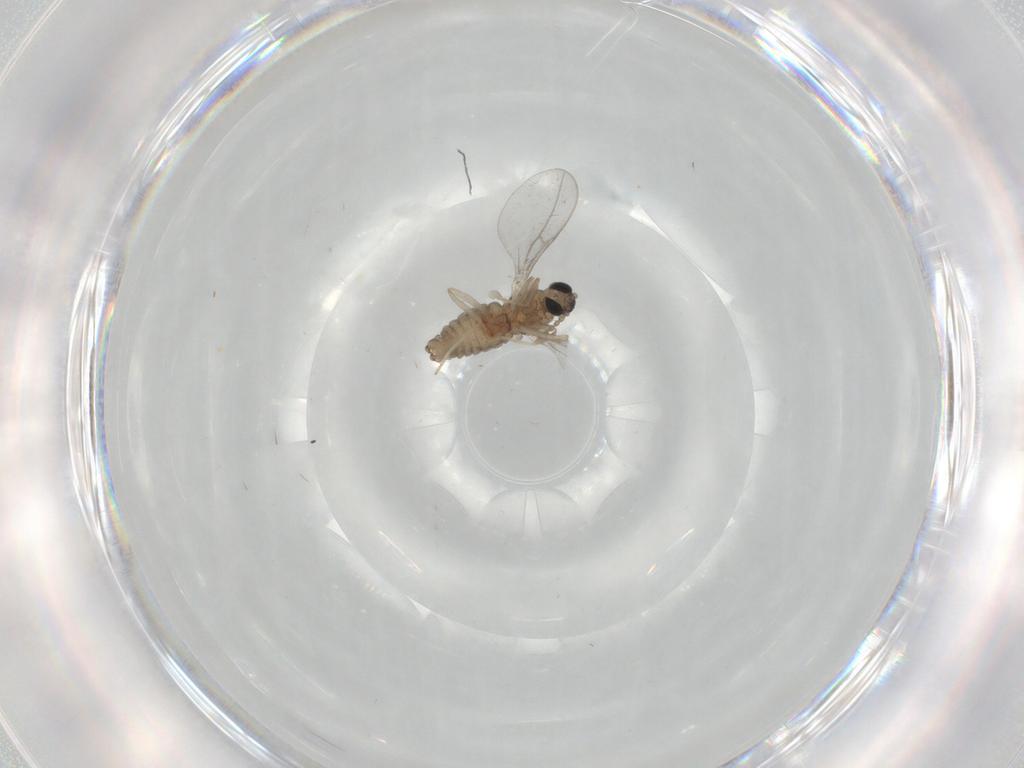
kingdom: Animalia
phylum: Arthropoda
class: Insecta
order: Diptera
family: Cecidomyiidae
